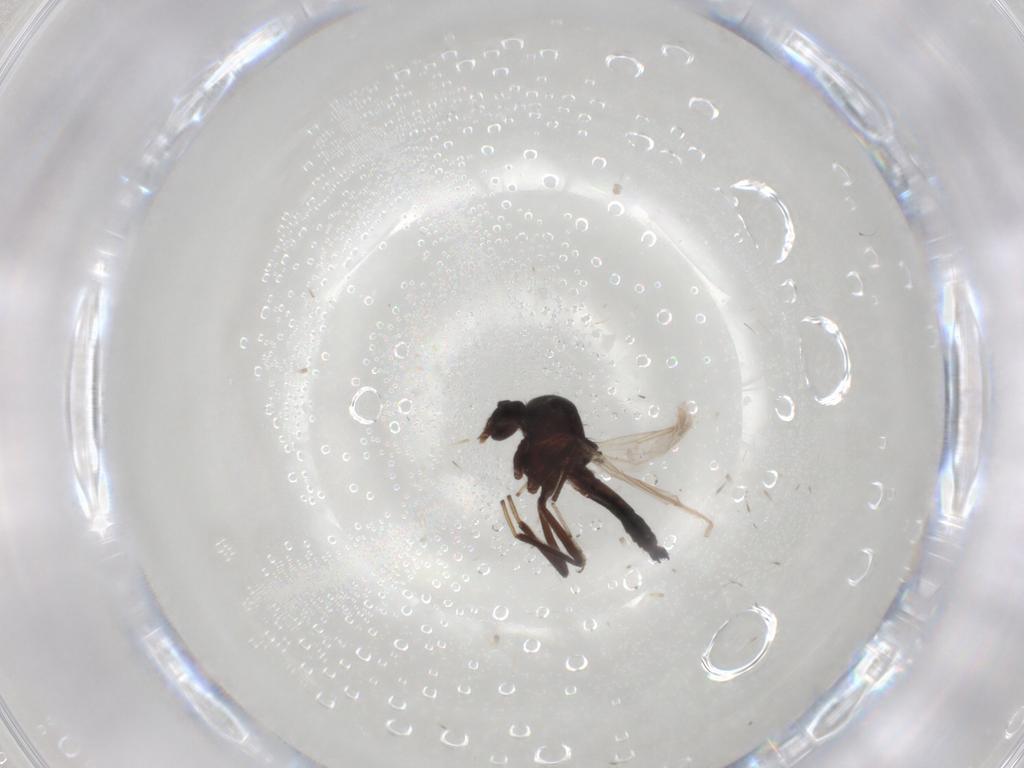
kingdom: Animalia
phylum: Arthropoda
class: Insecta
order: Diptera
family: Ceratopogonidae
